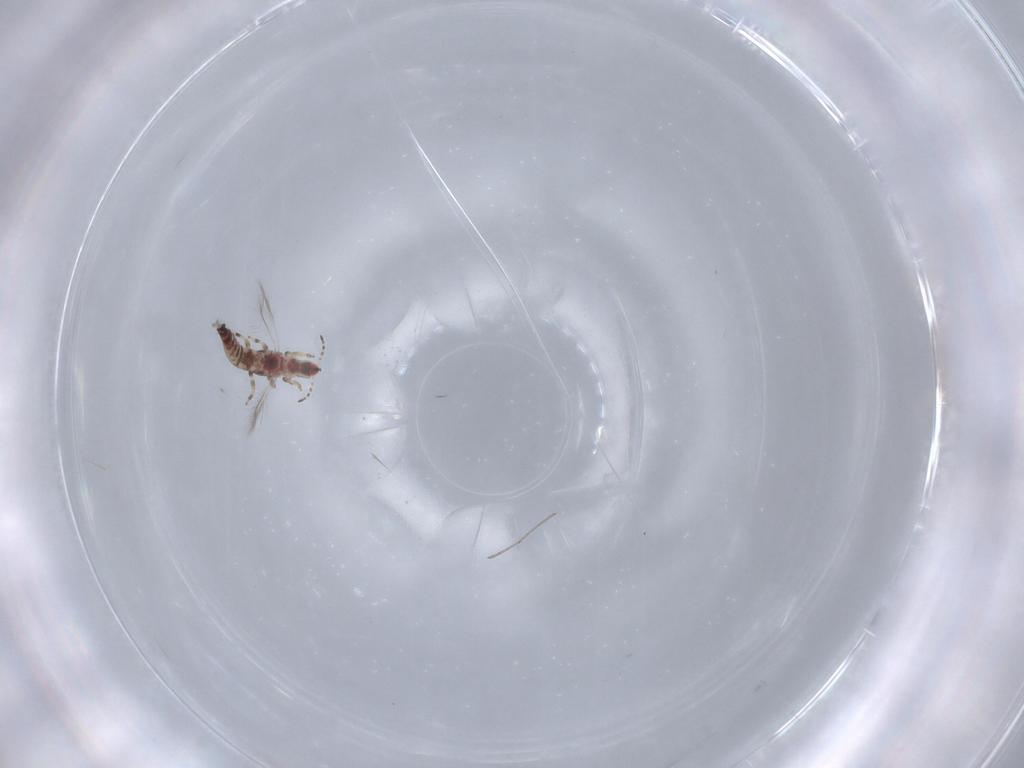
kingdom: Animalia
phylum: Arthropoda
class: Insecta
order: Thysanoptera
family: Phlaeothripidae
